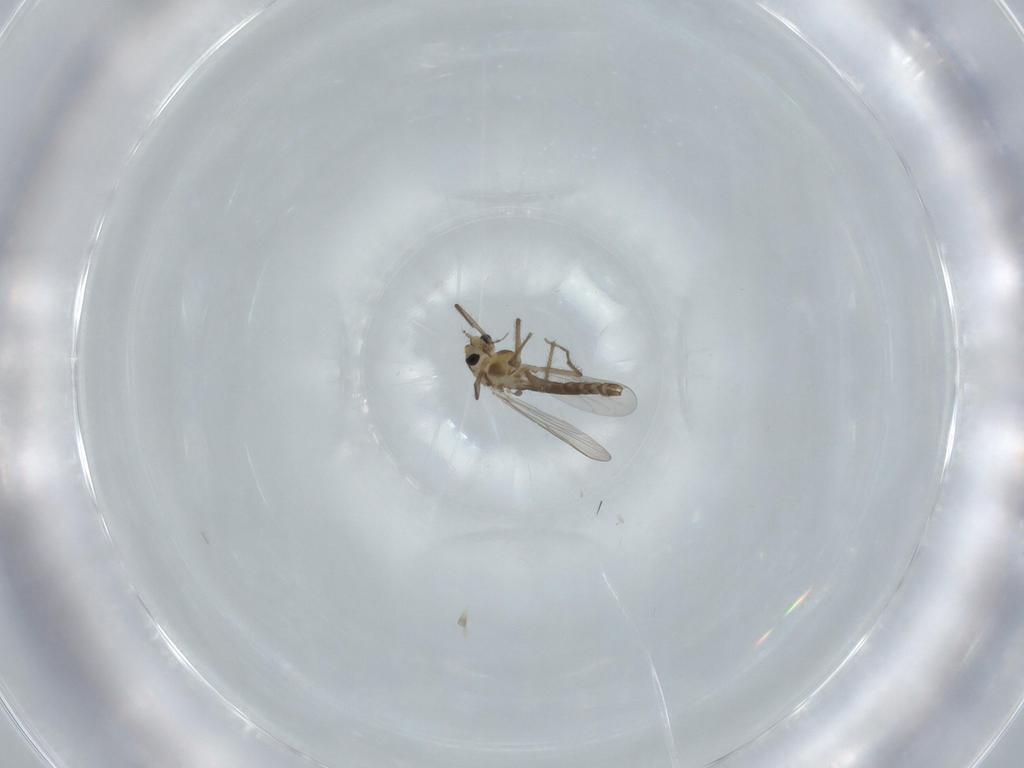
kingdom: Animalia
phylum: Arthropoda
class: Insecta
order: Diptera
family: Chironomidae
